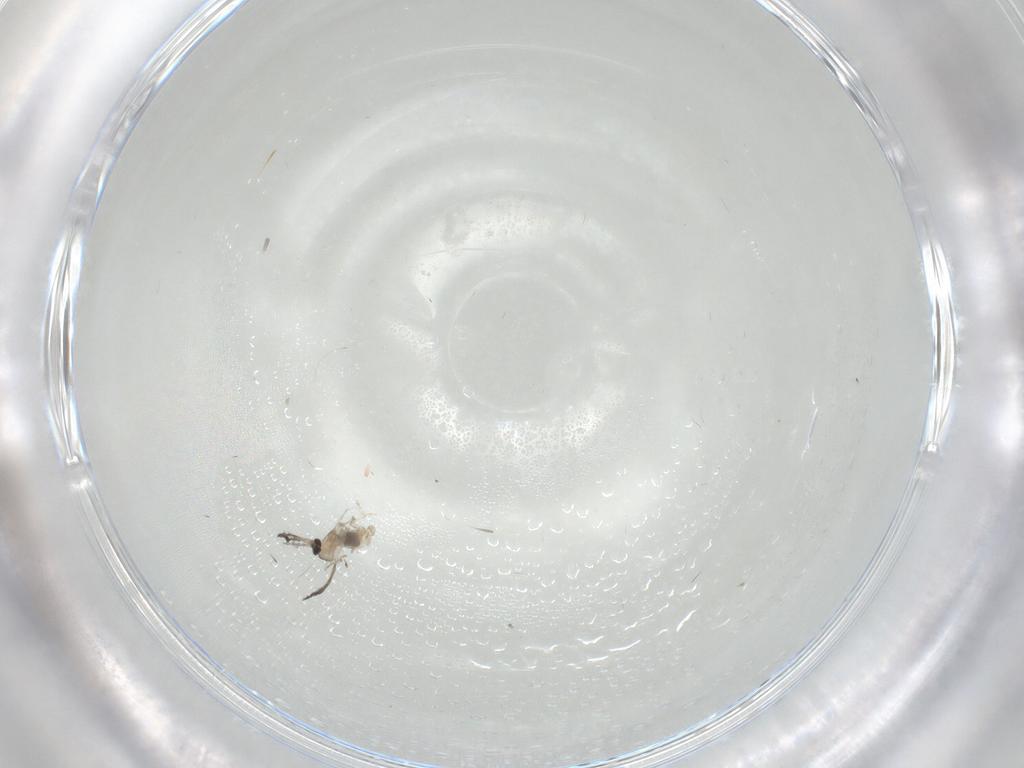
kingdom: Animalia
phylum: Arthropoda
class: Insecta
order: Diptera
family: Cecidomyiidae
